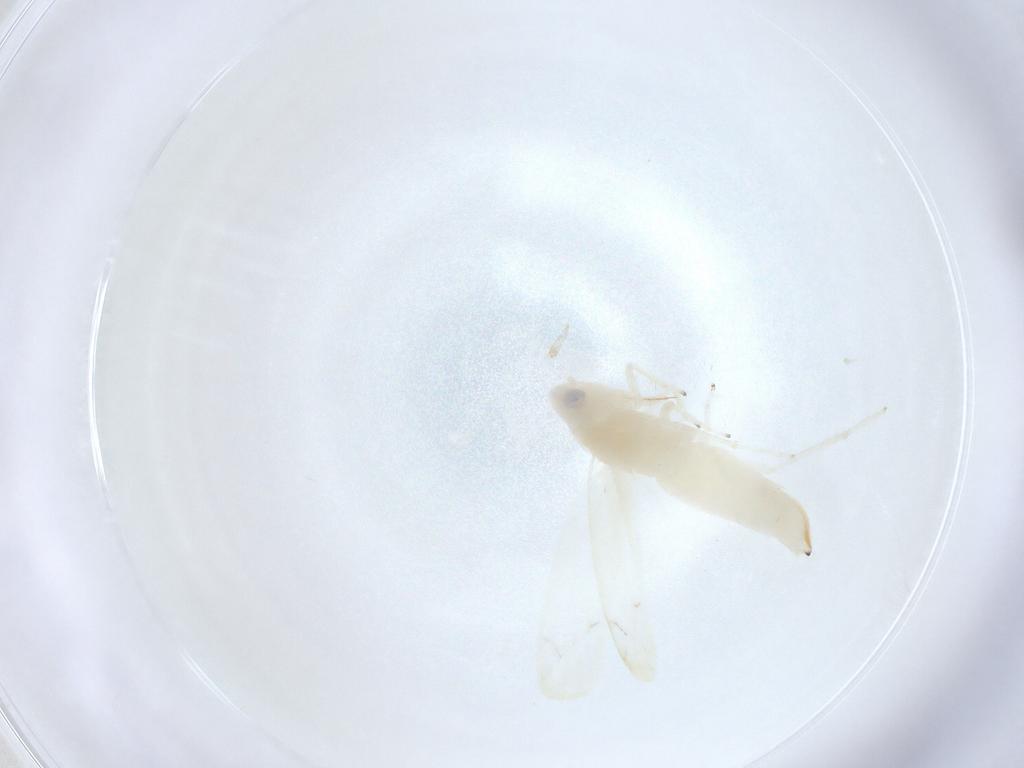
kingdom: Animalia
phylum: Arthropoda
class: Insecta
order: Hemiptera
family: Cicadellidae
